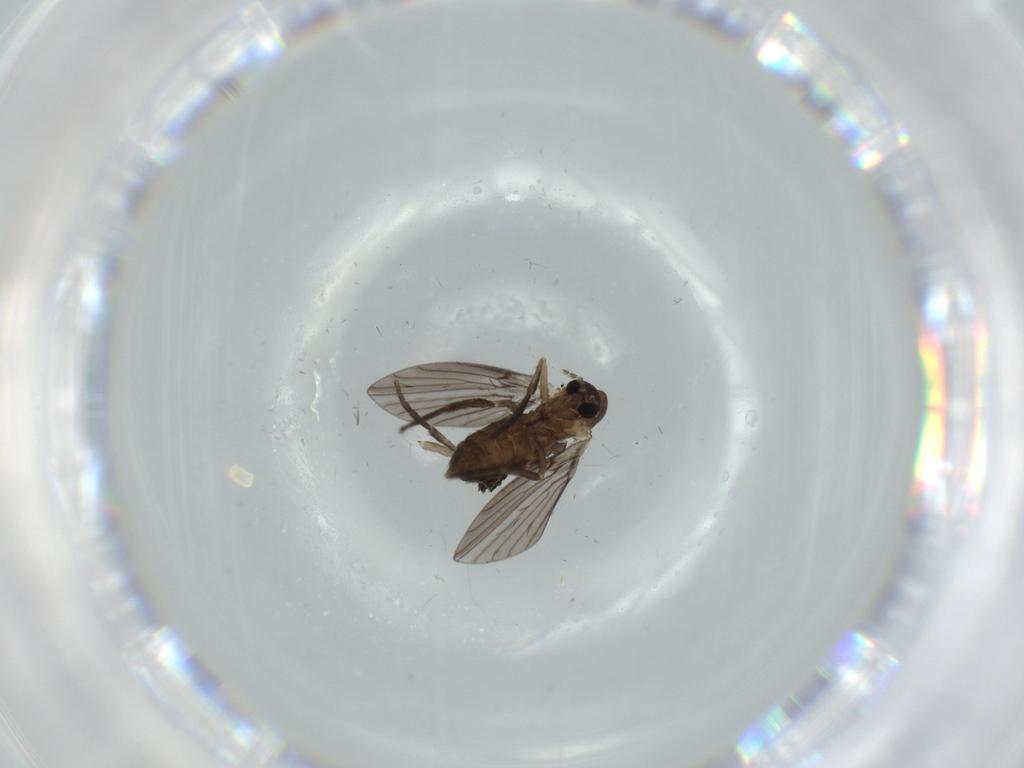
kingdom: Animalia
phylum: Arthropoda
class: Insecta
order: Diptera
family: Psychodidae
